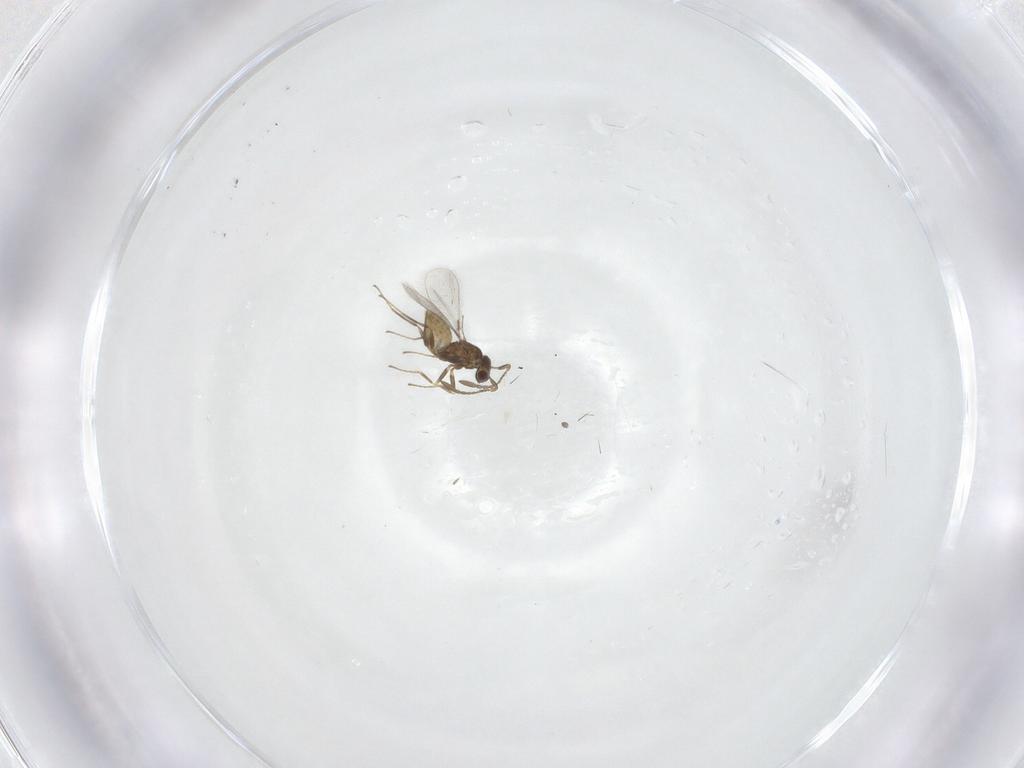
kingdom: Animalia
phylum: Arthropoda
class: Insecta
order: Hymenoptera
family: Mymaridae
